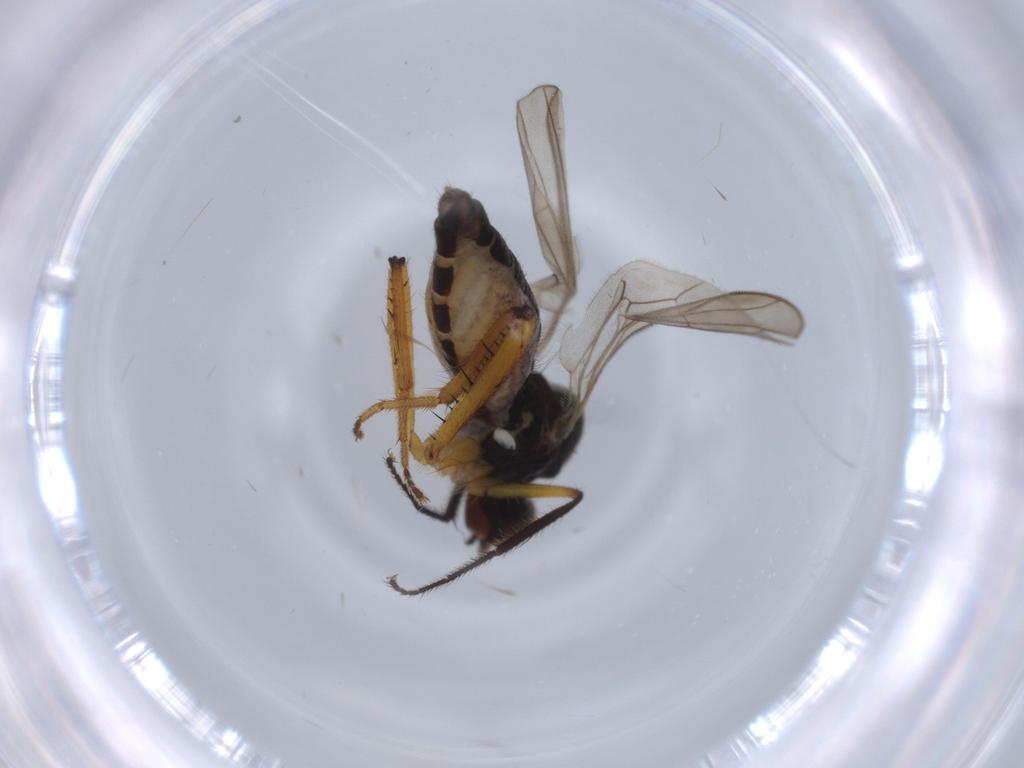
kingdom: Animalia
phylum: Arthropoda
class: Insecta
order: Diptera
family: Hybotidae
